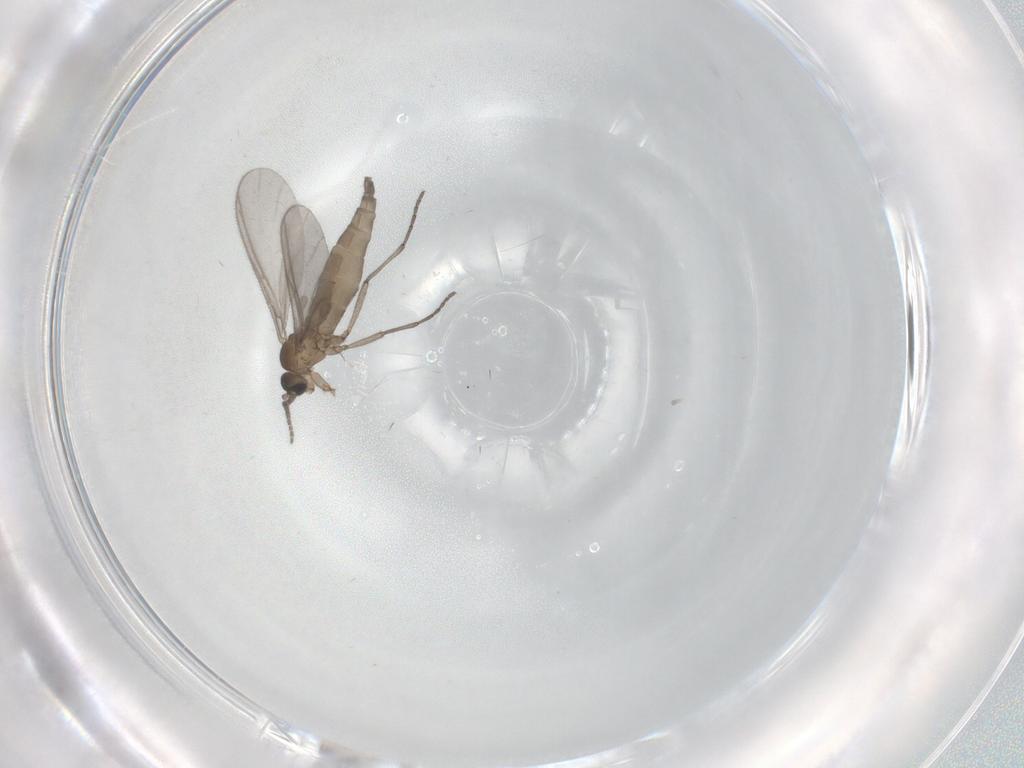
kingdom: Animalia
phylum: Arthropoda
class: Insecta
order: Diptera
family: Sciaridae
